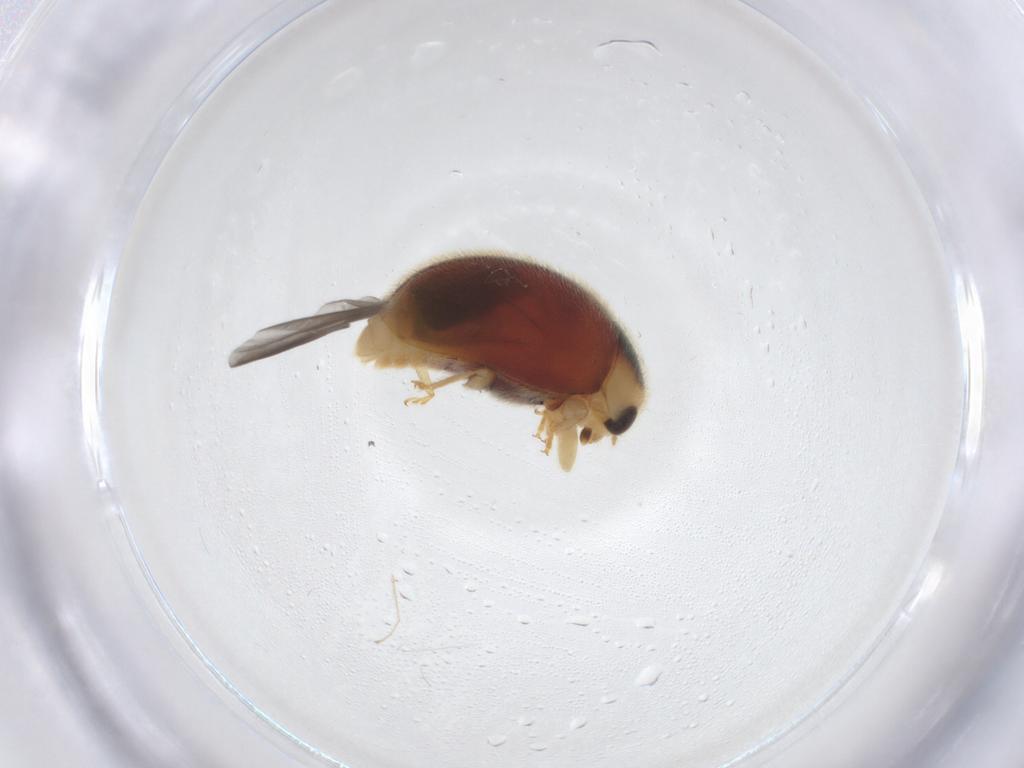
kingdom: Animalia
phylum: Arthropoda
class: Insecta
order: Coleoptera
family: Coccinellidae
